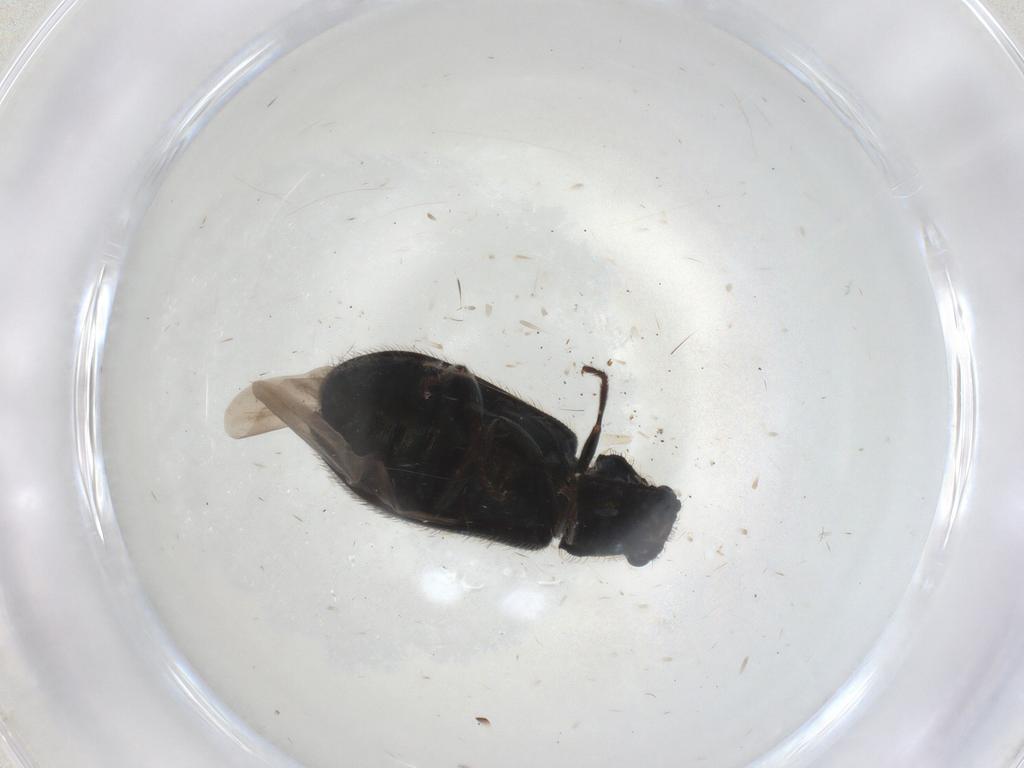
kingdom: Animalia
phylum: Arthropoda
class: Insecta
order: Coleoptera
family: Melyridae
